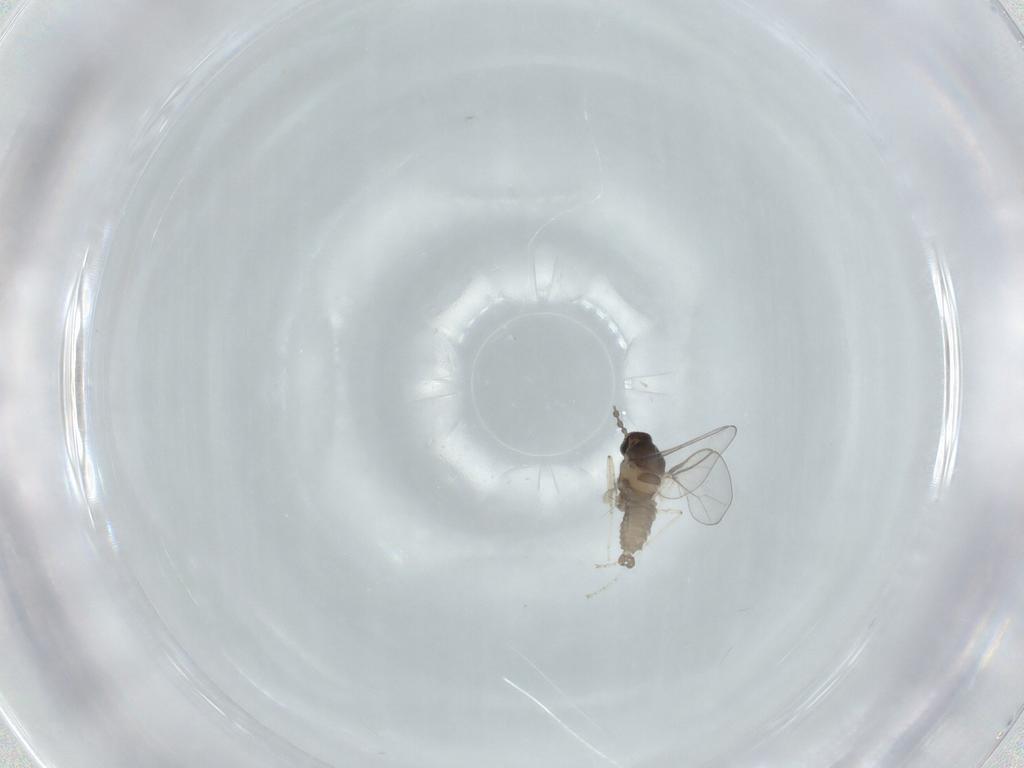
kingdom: Animalia
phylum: Arthropoda
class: Insecta
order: Diptera
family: Cecidomyiidae
